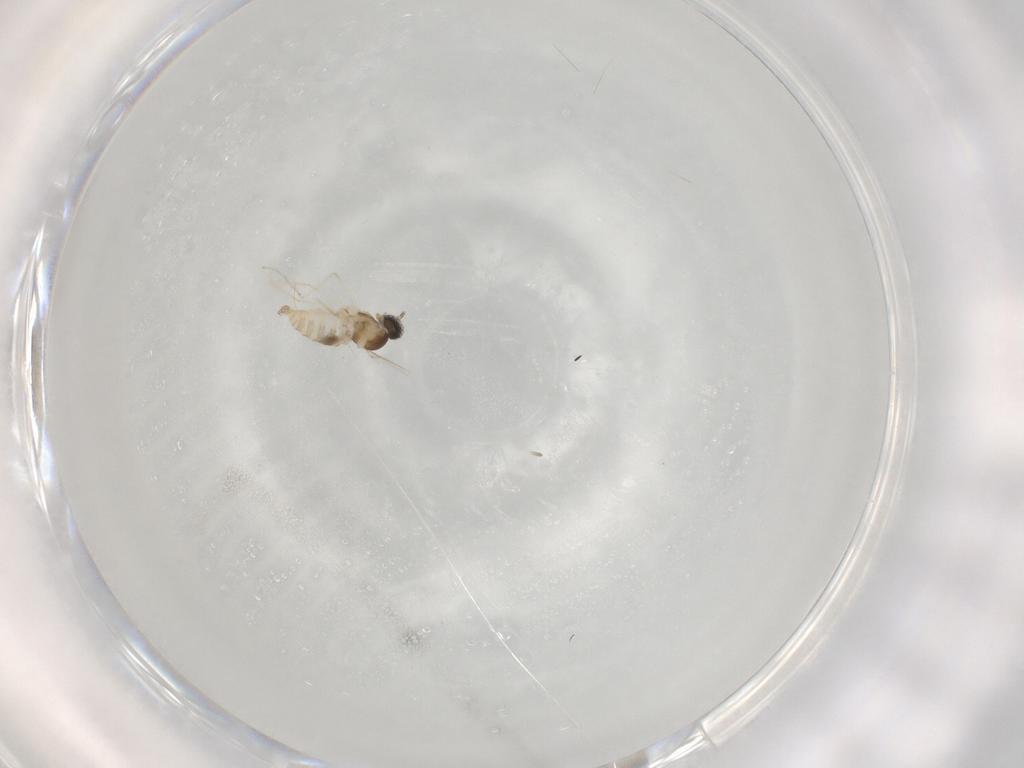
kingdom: Animalia
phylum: Arthropoda
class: Insecta
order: Diptera
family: Cecidomyiidae
